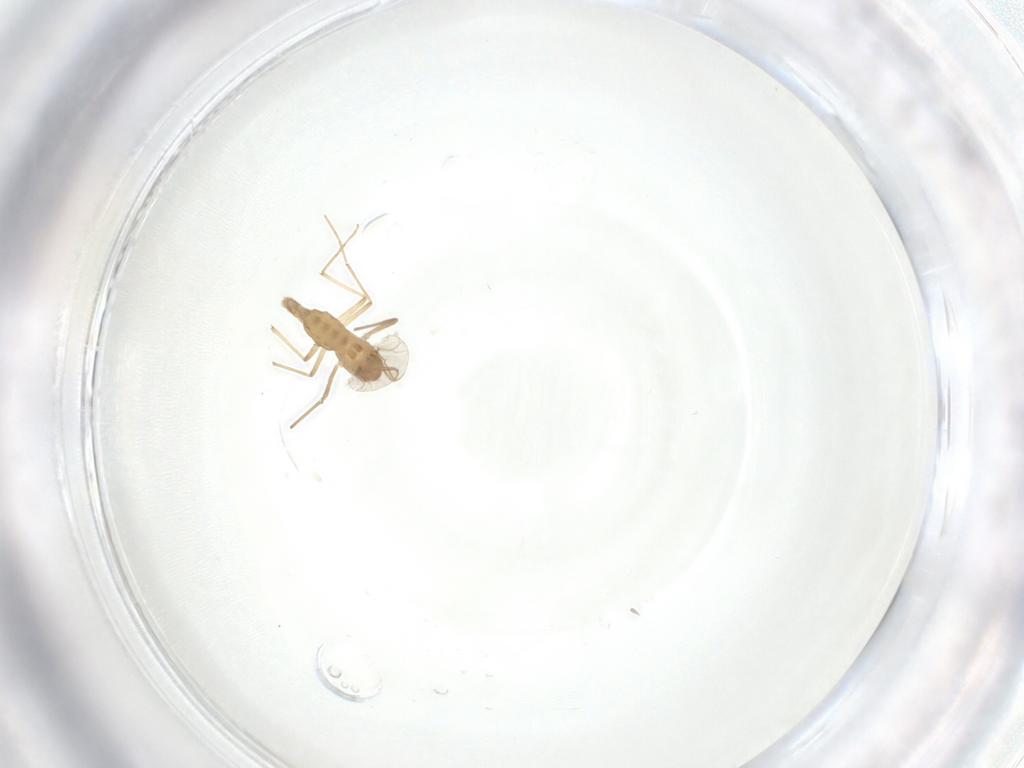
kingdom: Animalia
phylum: Arthropoda
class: Insecta
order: Diptera
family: Chironomidae
